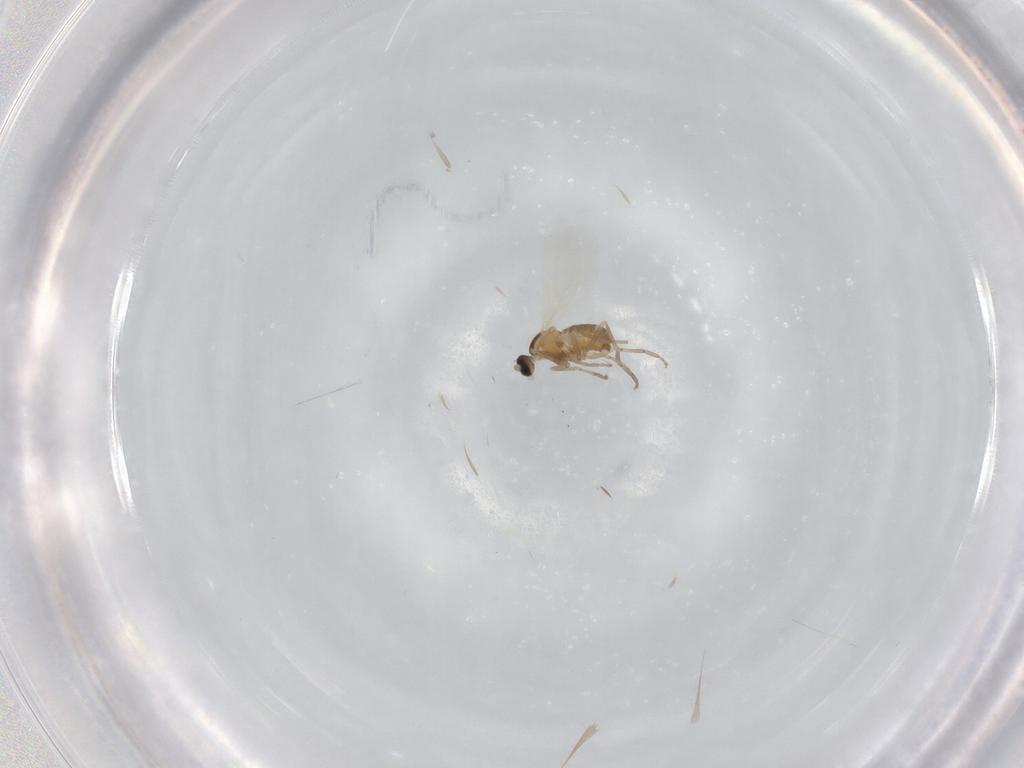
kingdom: Animalia
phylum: Arthropoda
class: Insecta
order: Diptera
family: Cecidomyiidae
